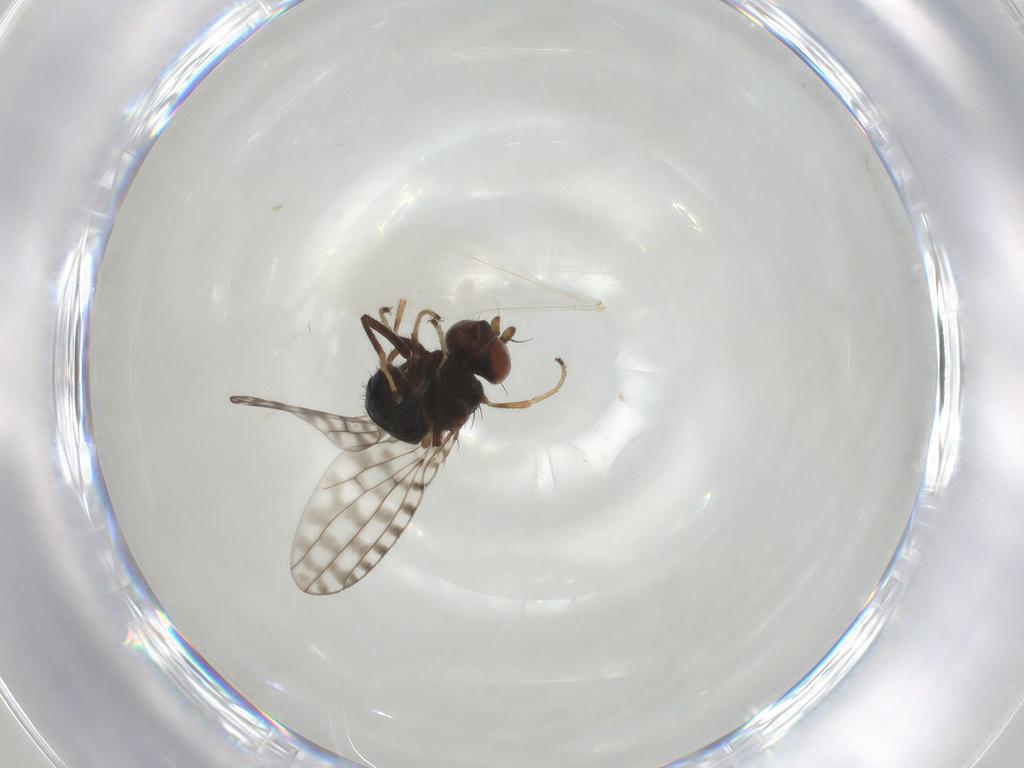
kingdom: Animalia
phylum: Arthropoda
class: Insecta
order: Diptera
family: Ephydridae
